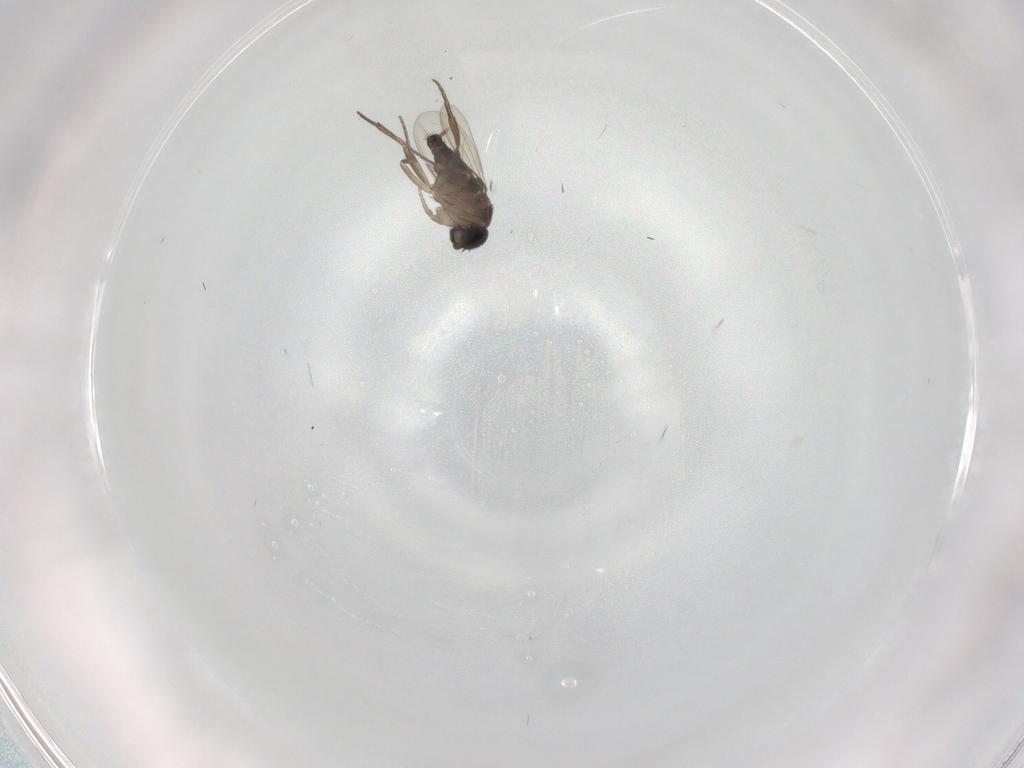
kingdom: Animalia
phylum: Arthropoda
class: Insecta
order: Diptera
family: Phoridae
